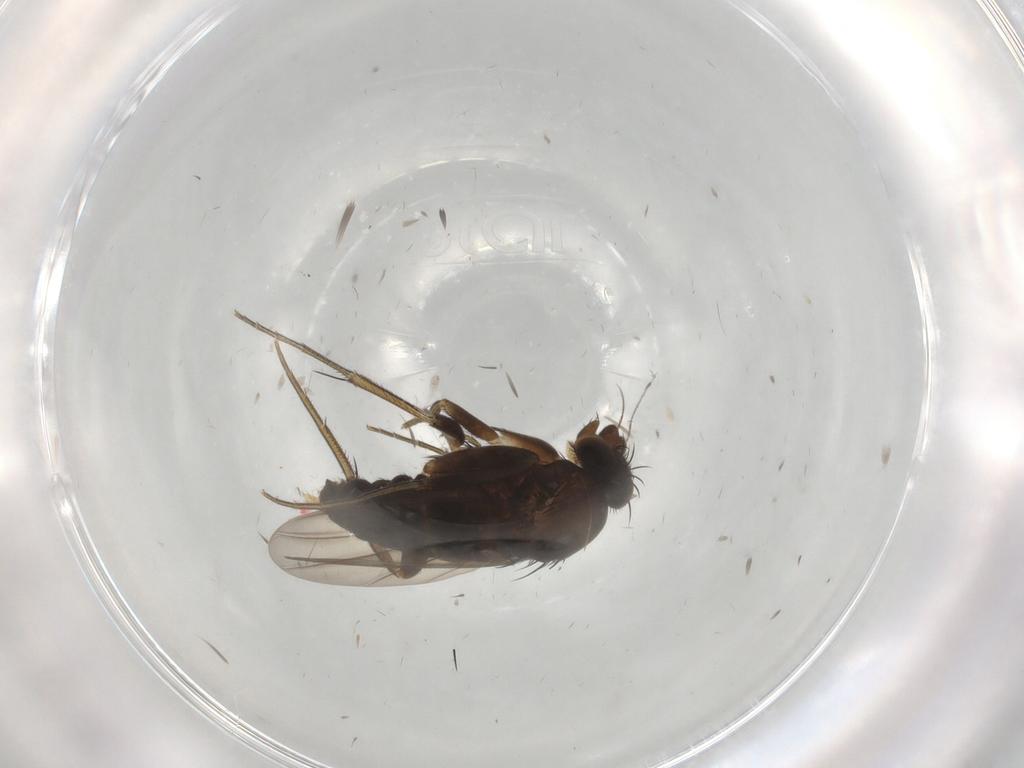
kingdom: Animalia
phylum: Arthropoda
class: Insecta
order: Diptera
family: Phoridae
